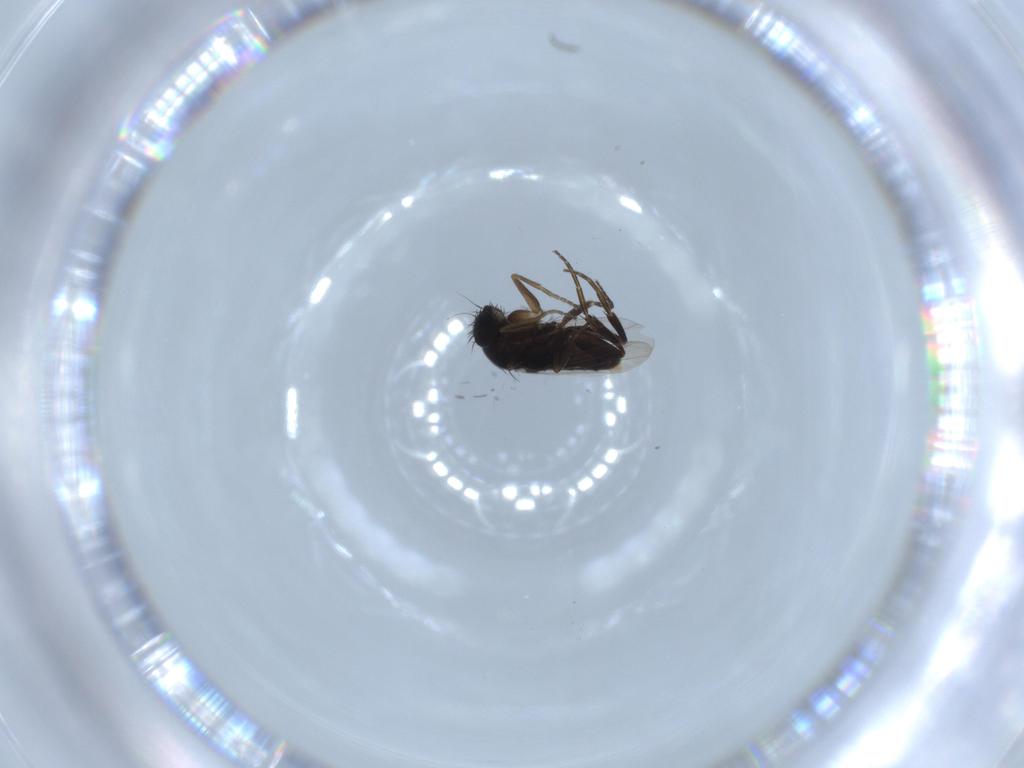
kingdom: Animalia
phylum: Arthropoda
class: Insecta
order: Diptera
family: Phoridae
